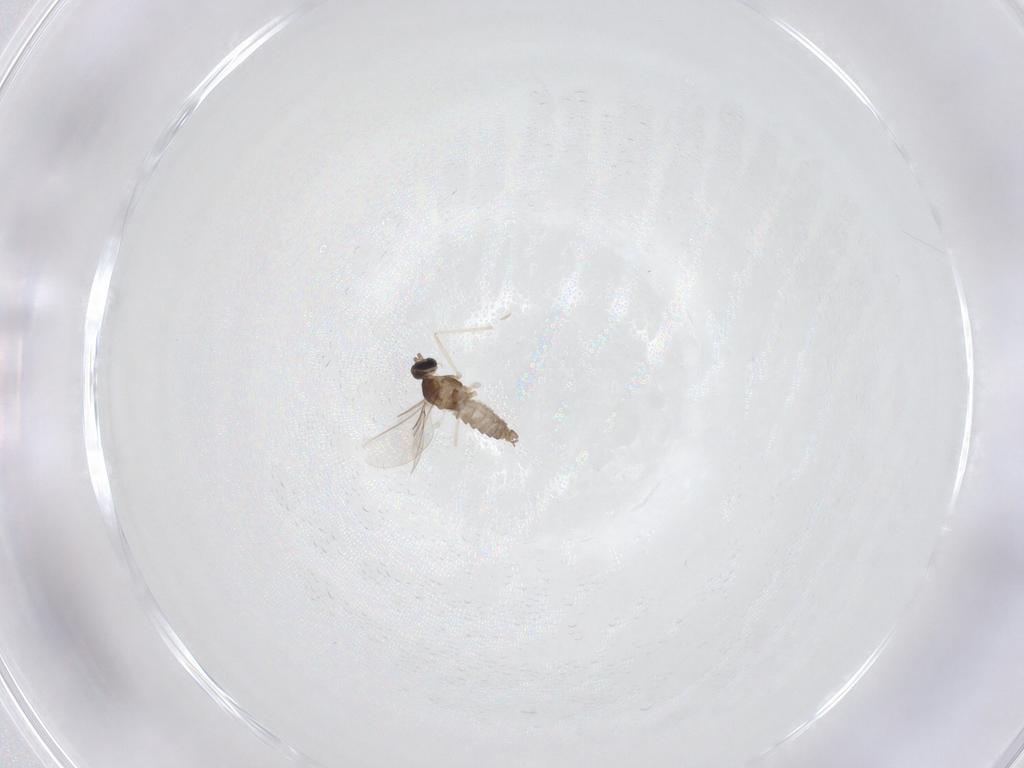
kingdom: Animalia
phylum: Arthropoda
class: Insecta
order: Diptera
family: Cecidomyiidae
